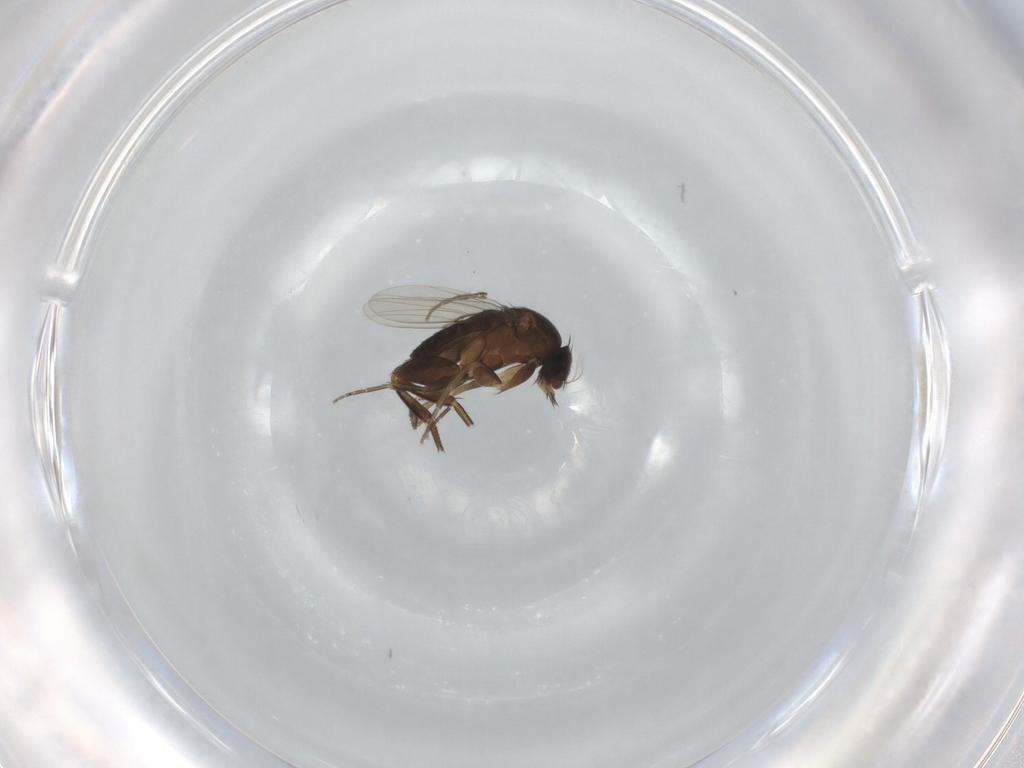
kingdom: Animalia
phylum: Arthropoda
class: Insecta
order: Diptera
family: Phoridae
